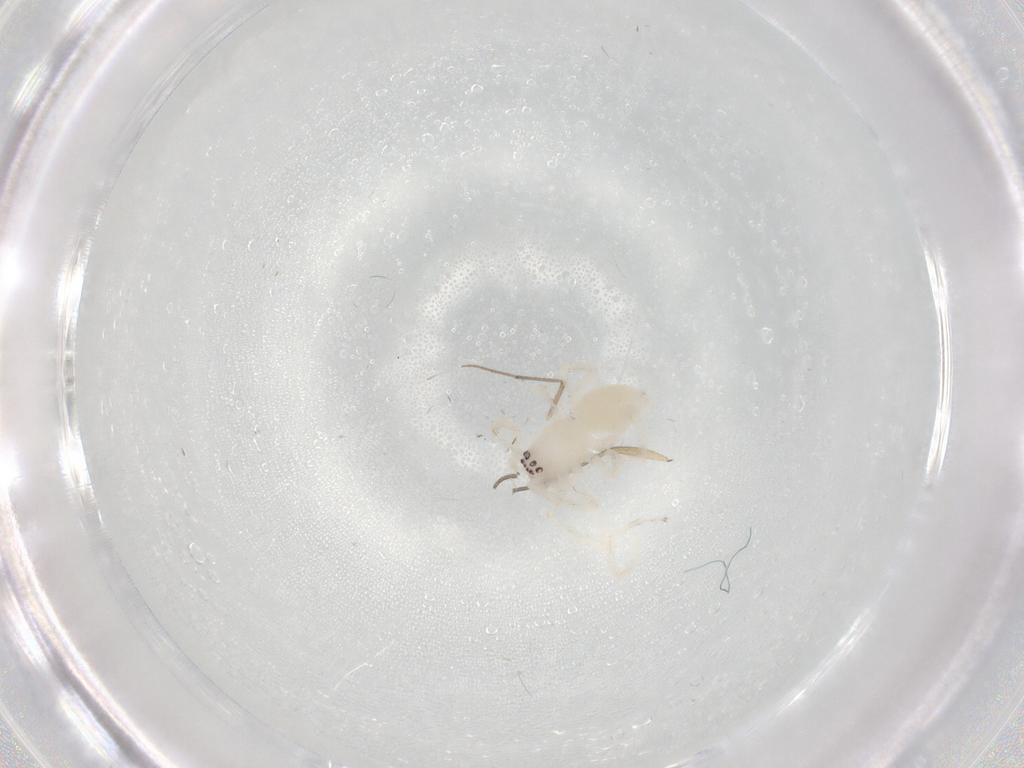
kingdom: Animalia
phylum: Arthropoda
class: Arachnida
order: Araneae
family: Anyphaenidae
